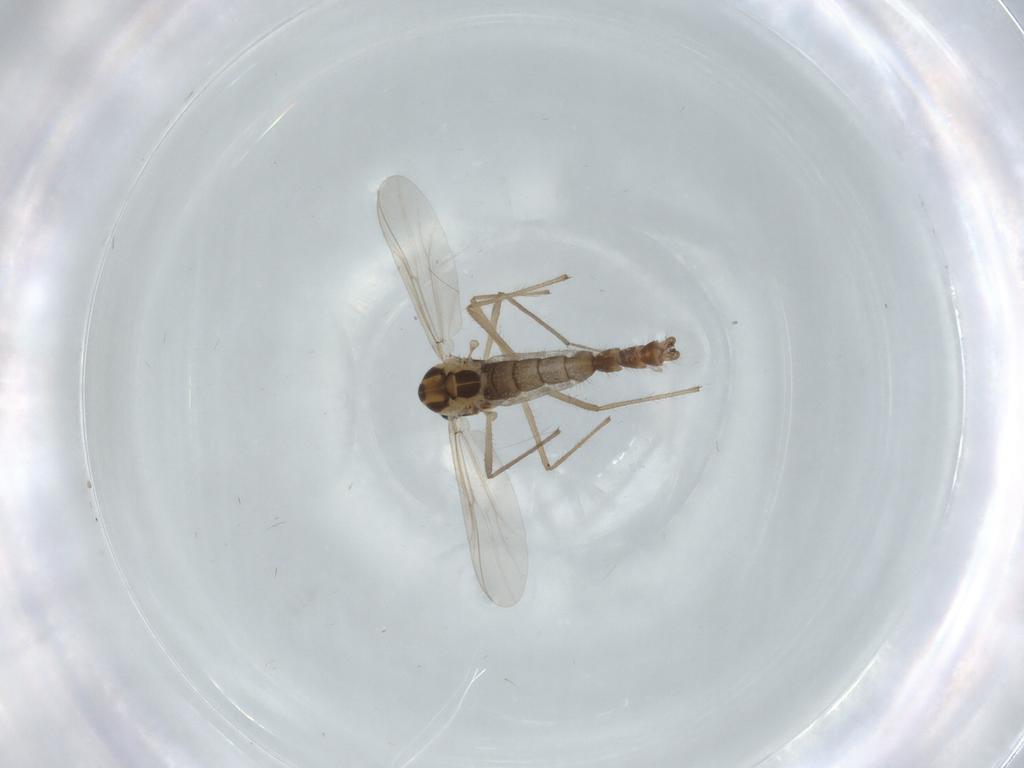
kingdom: Animalia
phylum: Arthropoda
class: Insecta
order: Diptera
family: Chironomidae
